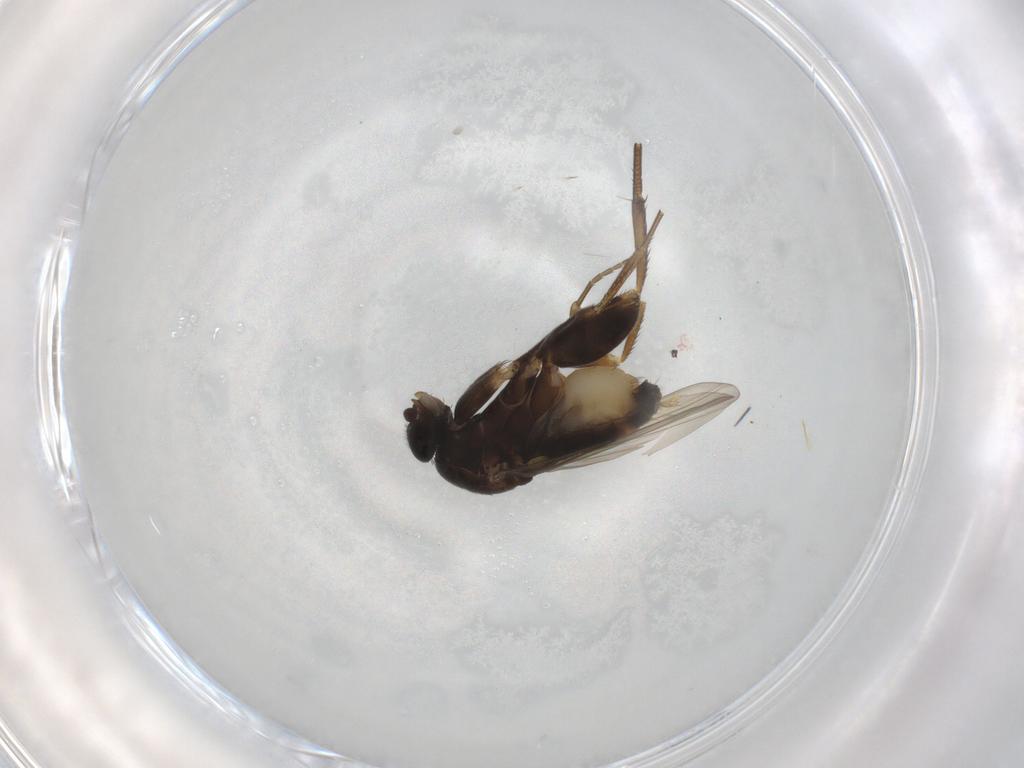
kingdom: Animalia
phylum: Arthropoda
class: Insecta
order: Diptera
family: Phoridae
